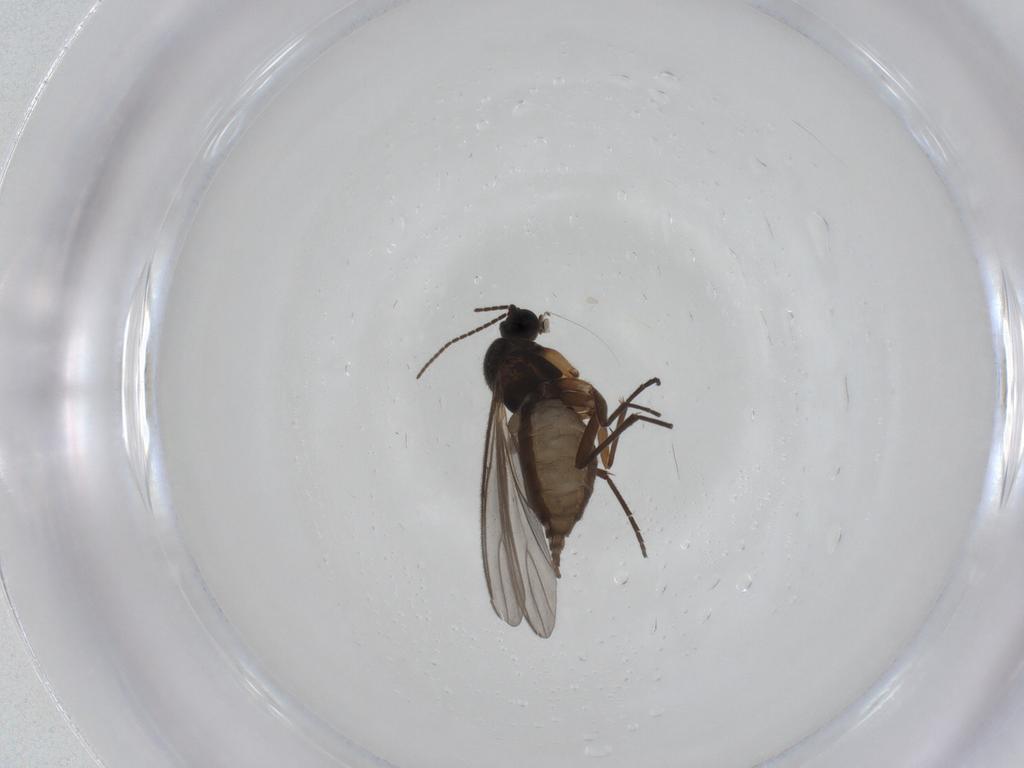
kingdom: Animalia
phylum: Arthropoda
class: Insecta
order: Diptera
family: Sciaridae
